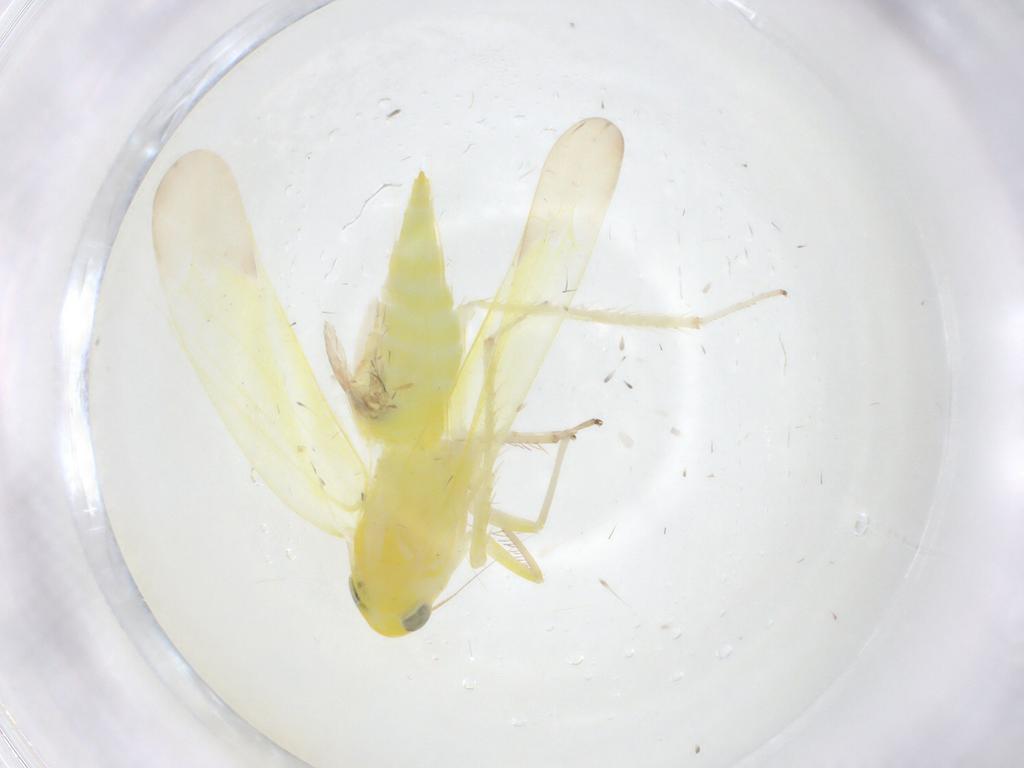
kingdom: Animalia
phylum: Arthropoda
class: Insecta
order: Hemiptera
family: Cicadellidae
